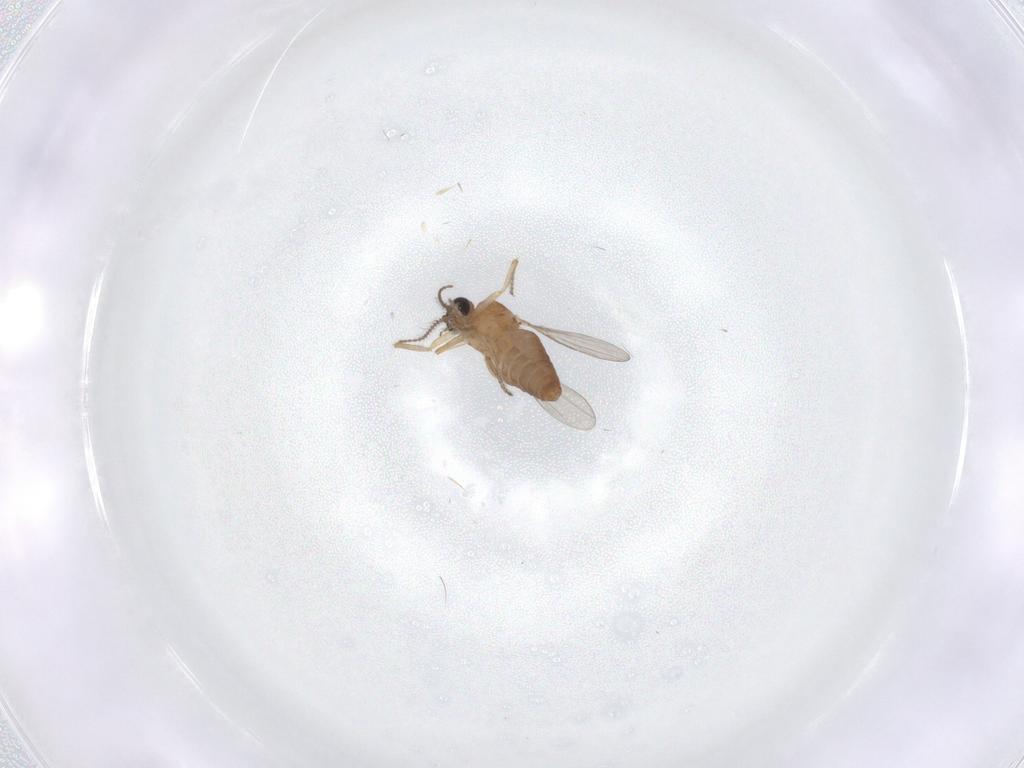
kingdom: Animalia
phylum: Arthropoda
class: Insecta
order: Diptera
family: Ceratopogonidae
